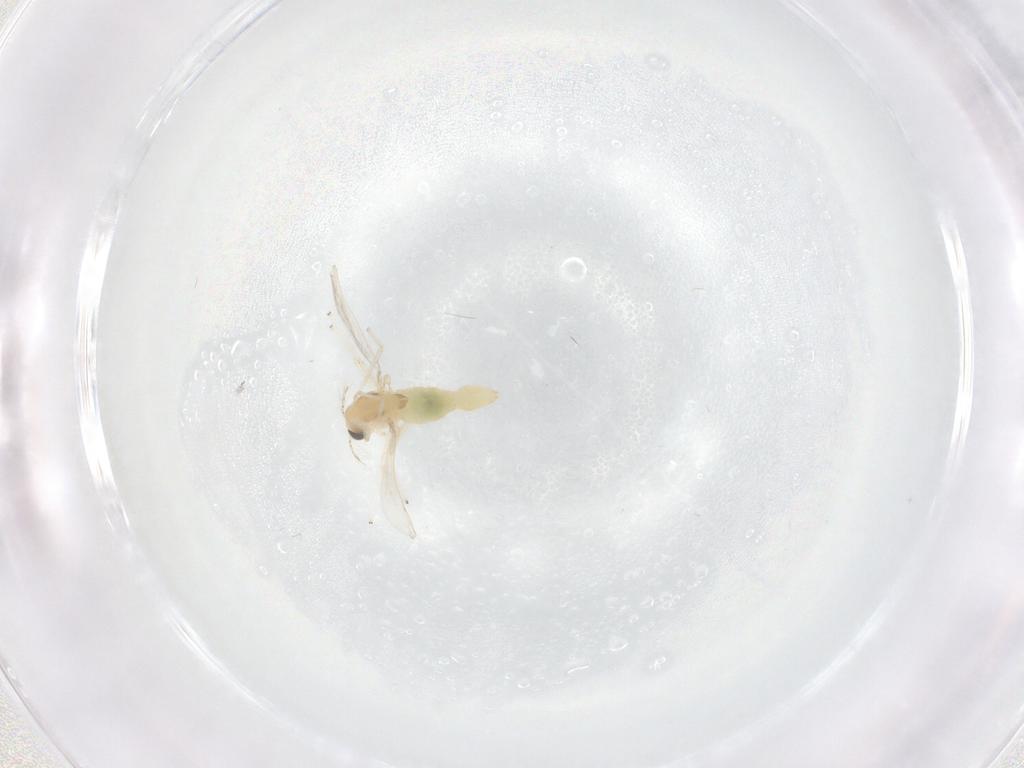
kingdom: Animalia
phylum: Arthropoda
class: Insecta
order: Diptera
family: Chironomidae
